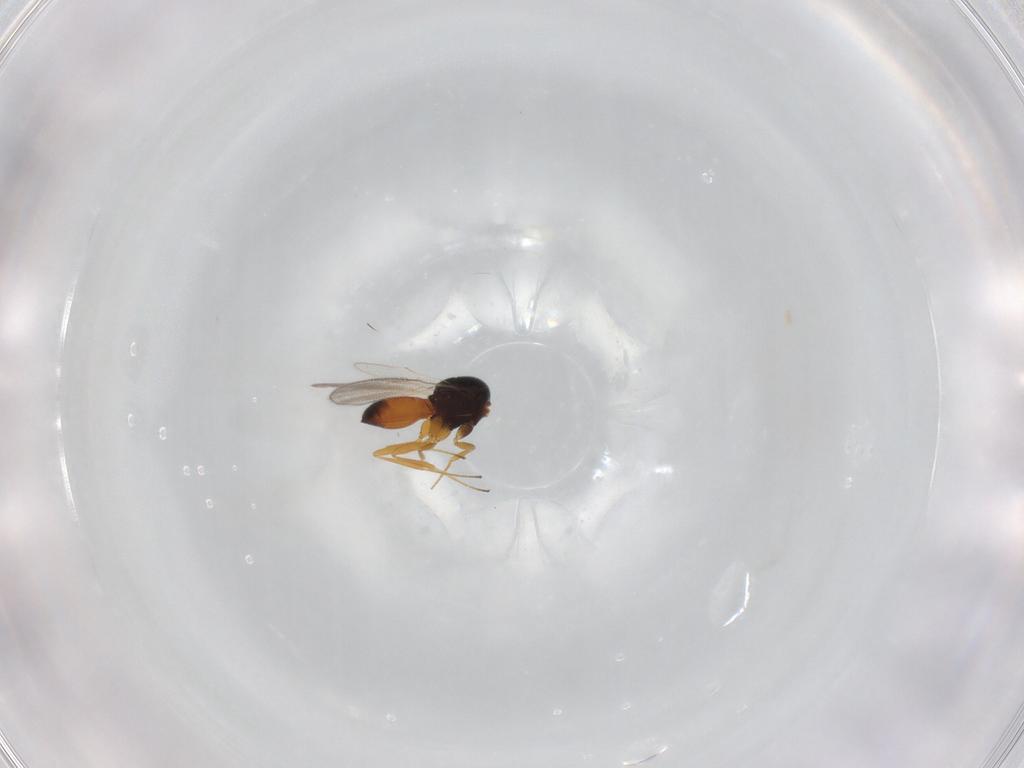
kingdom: Animalia
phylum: Arthropoda
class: Insecta
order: Hymenoptera
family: Scelionidae
